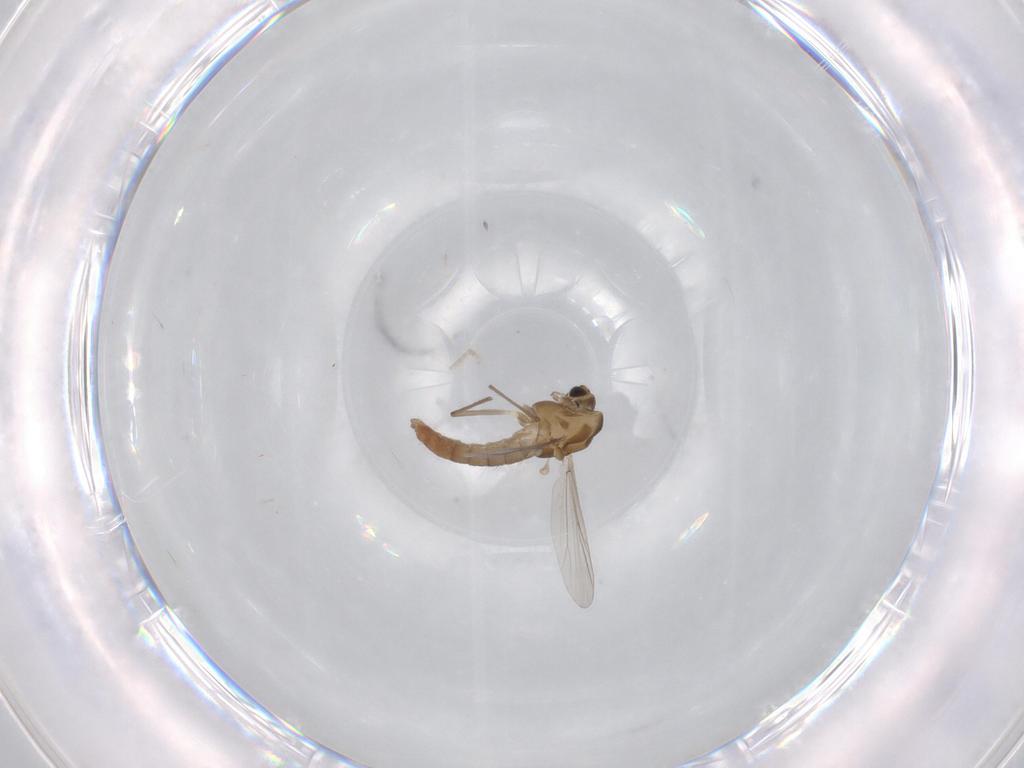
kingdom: Animalia
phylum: Arthropoda
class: Insecta
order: Diptera
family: Chironomidae
